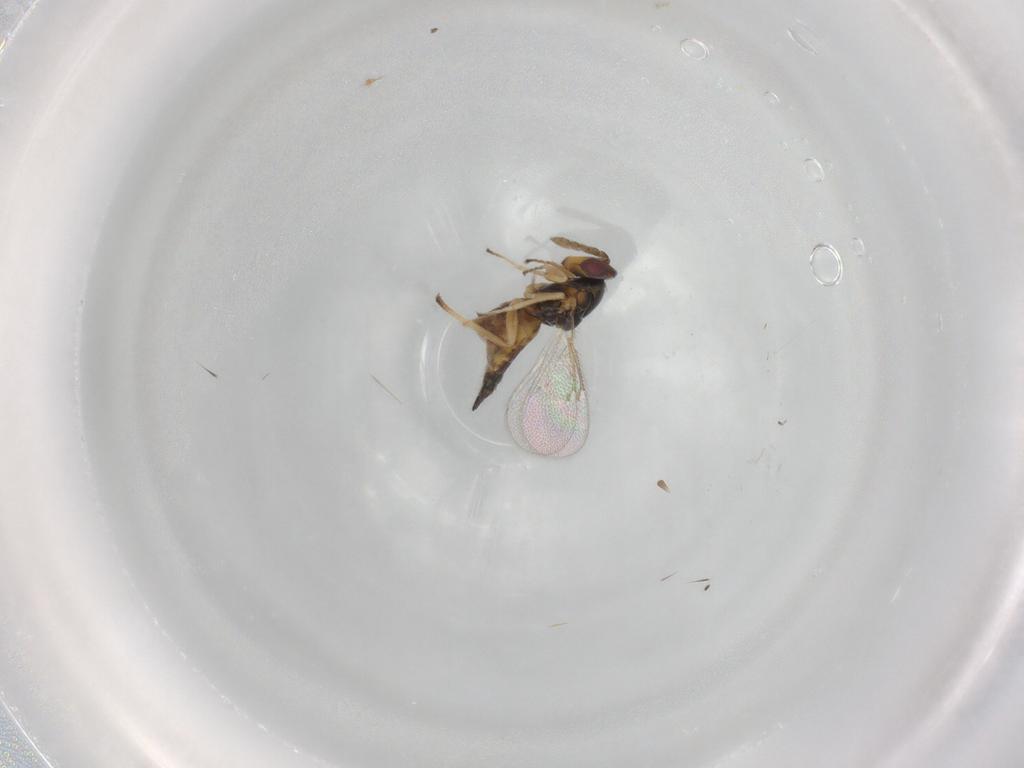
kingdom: Animalia
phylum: Arthropoda
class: Insecta
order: Hymenoptera
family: Eulophidae
